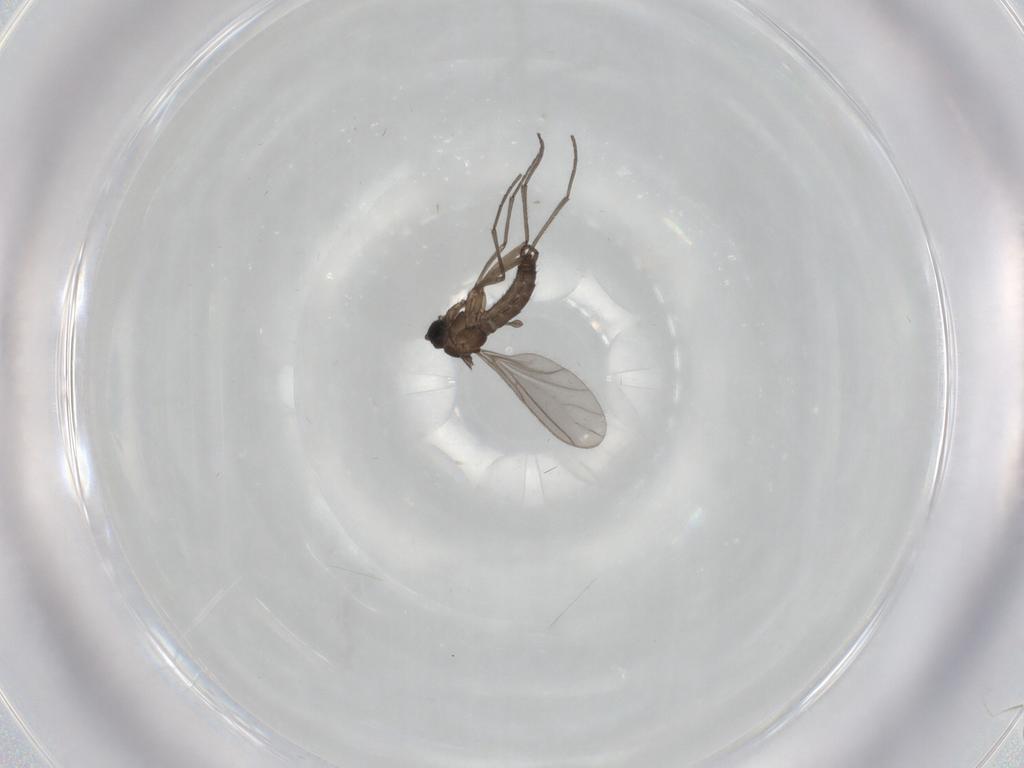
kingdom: Animalia
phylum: Arthropoda
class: Insecta
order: Diptera
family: Sciaridae
